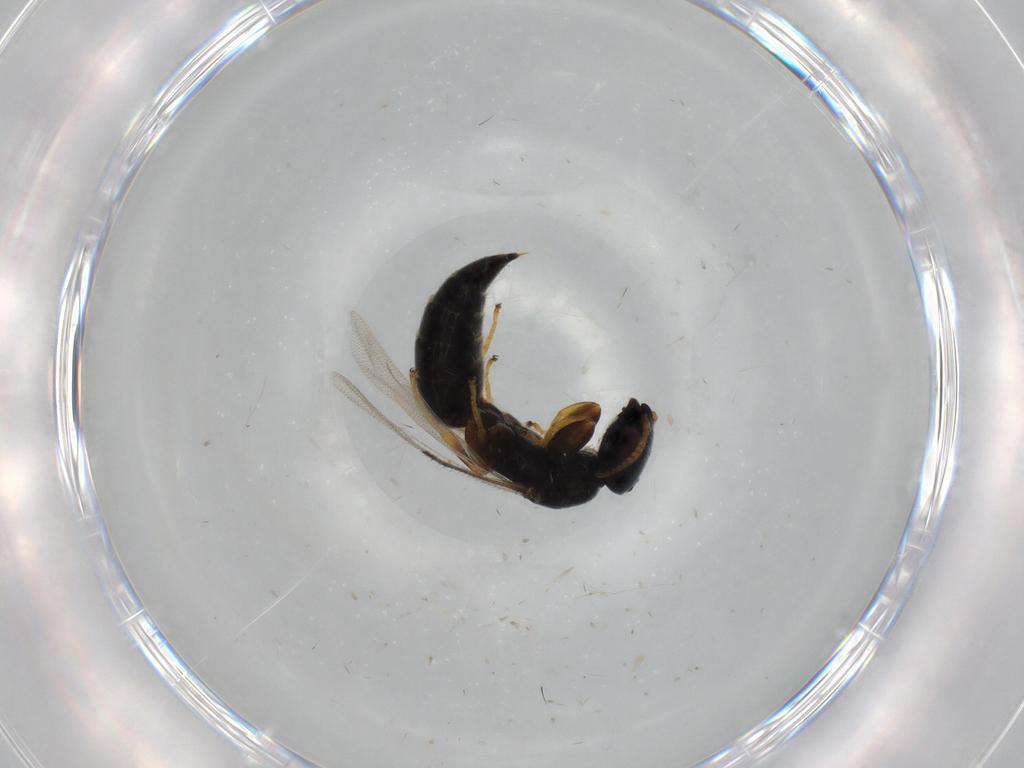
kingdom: Animalia
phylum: Arthropoda
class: Insecta
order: Hymenoptera
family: Bethylidae
